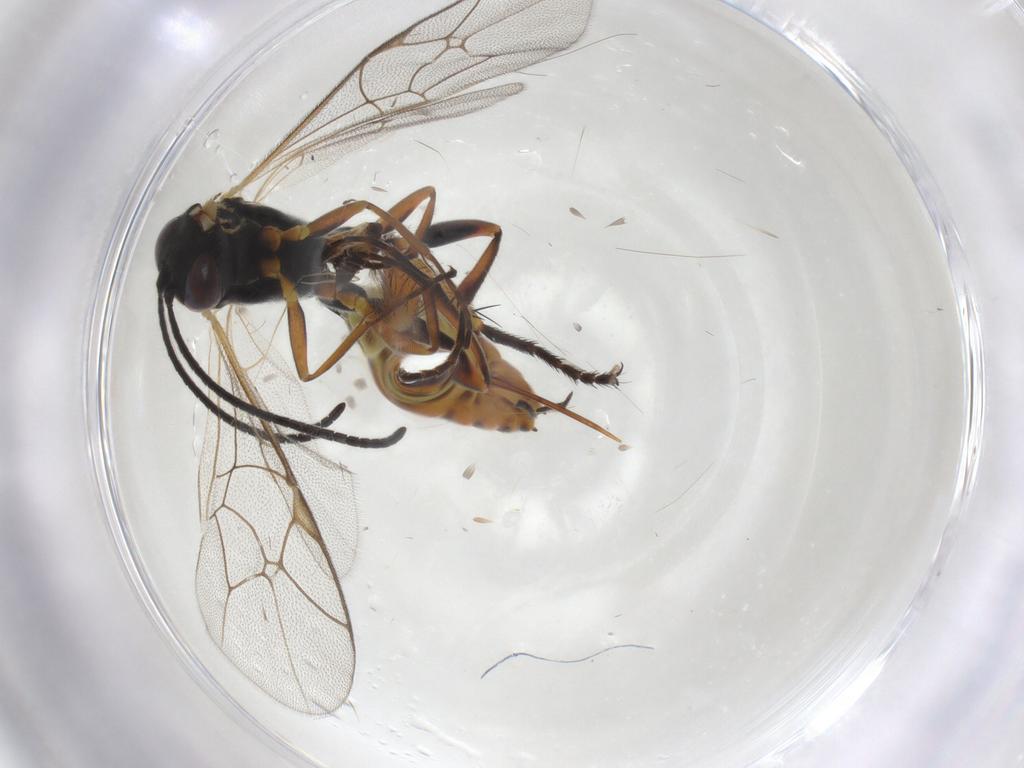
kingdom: Animalia
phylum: Arthropoda
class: Insecta
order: Hymenoptera
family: Ichneumonidae
